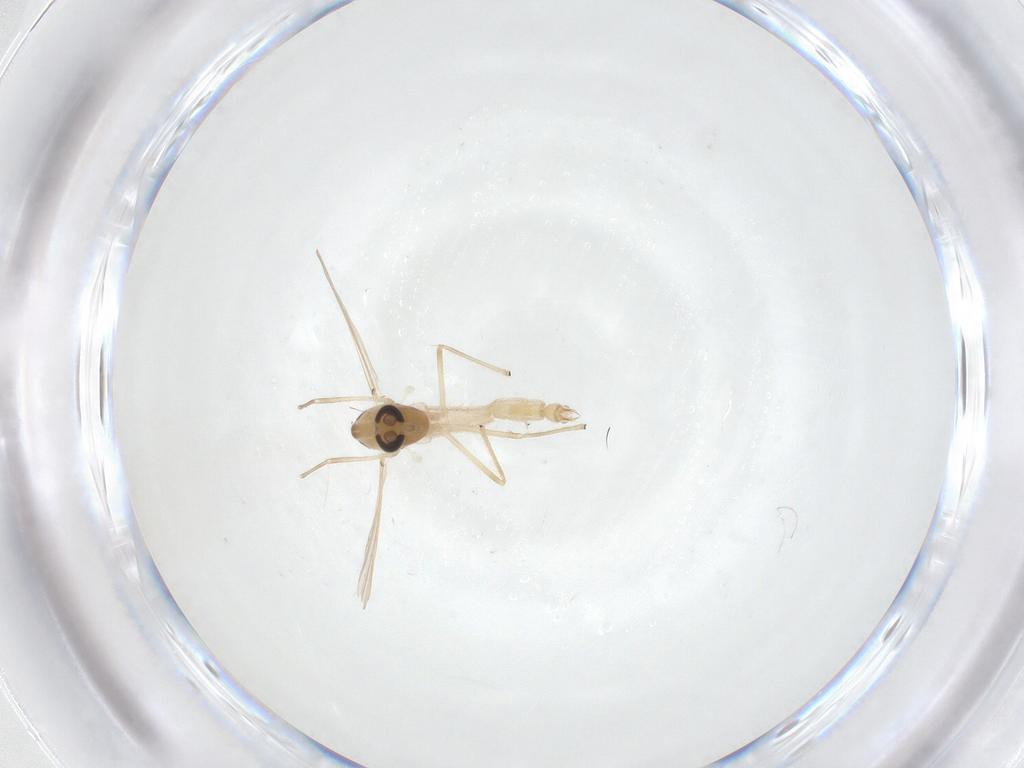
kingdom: Animalia
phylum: Arthropoda
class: Insecta
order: Diptera
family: Chironomidae
